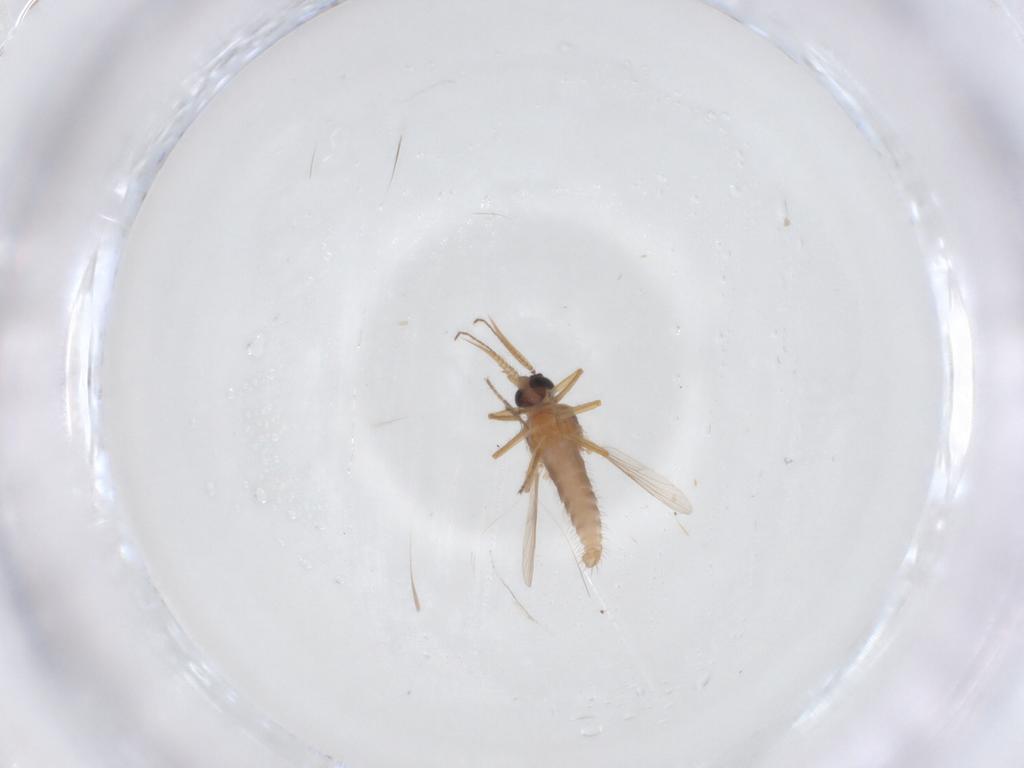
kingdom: Animalia
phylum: Arthropoda
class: Insecta
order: Diptera
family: Ceratopogonidae
